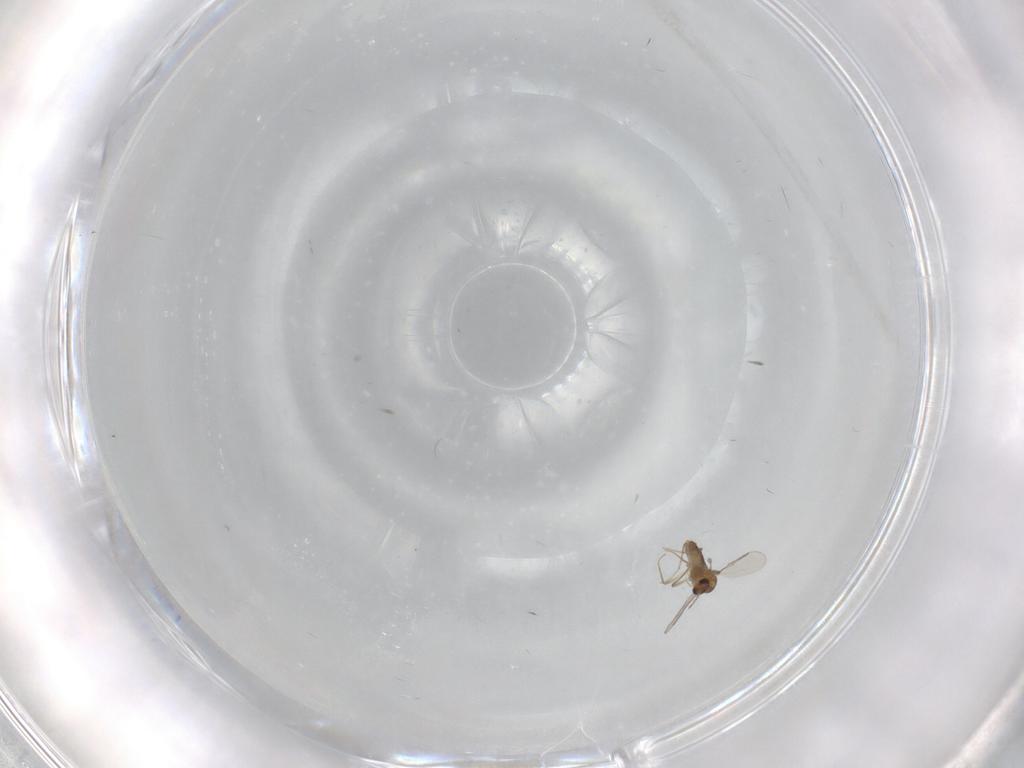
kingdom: Animalia
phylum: Arthropoda
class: Insecta
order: Diptera
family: Chironomidae
